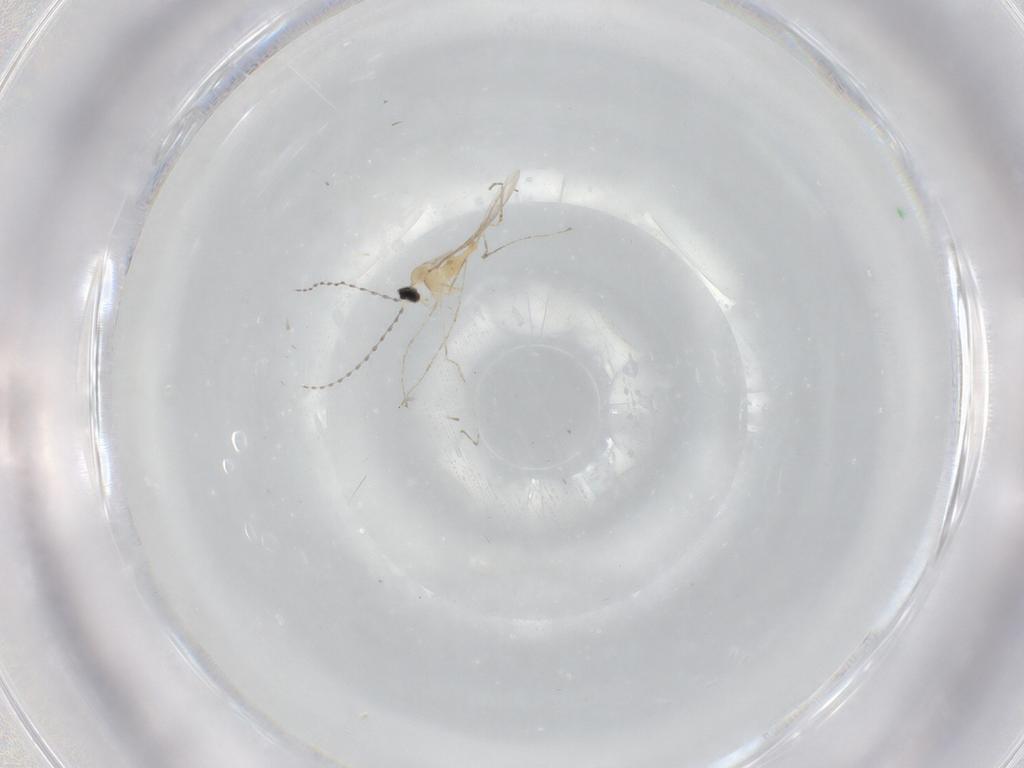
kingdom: Animalia
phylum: Arthropoda
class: Insecta
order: Diptera
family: Cecidomyiidae
